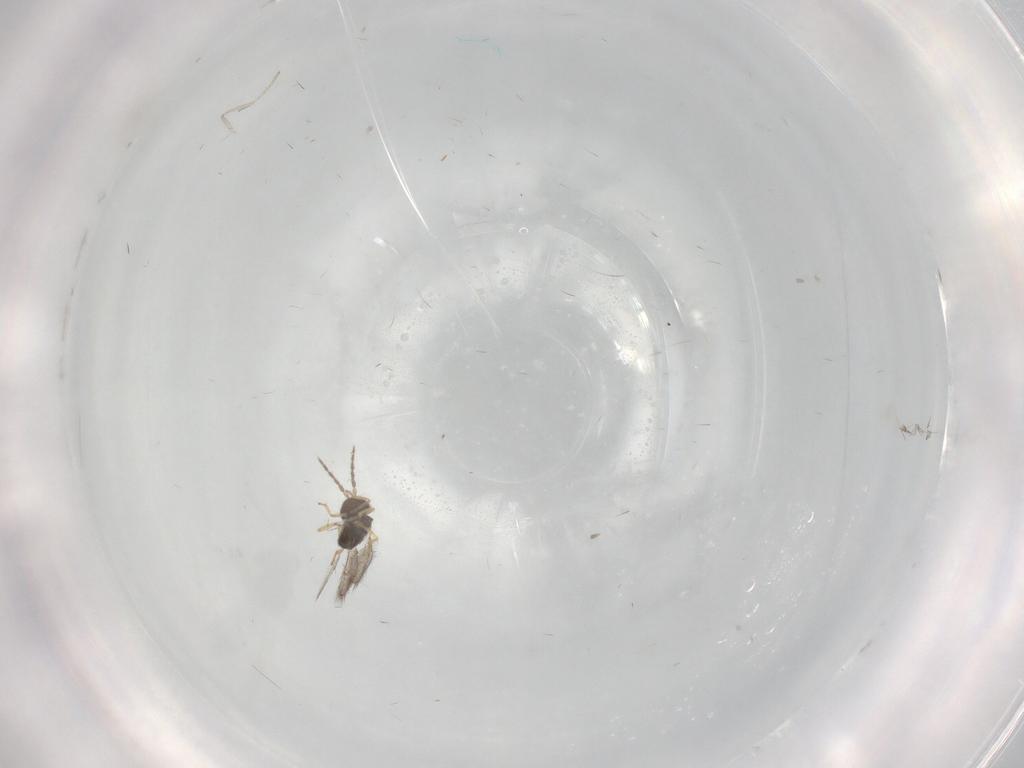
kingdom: Animalia
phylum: Arthropoda
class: Insecta
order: Hymenoptera
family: Eulophidae
